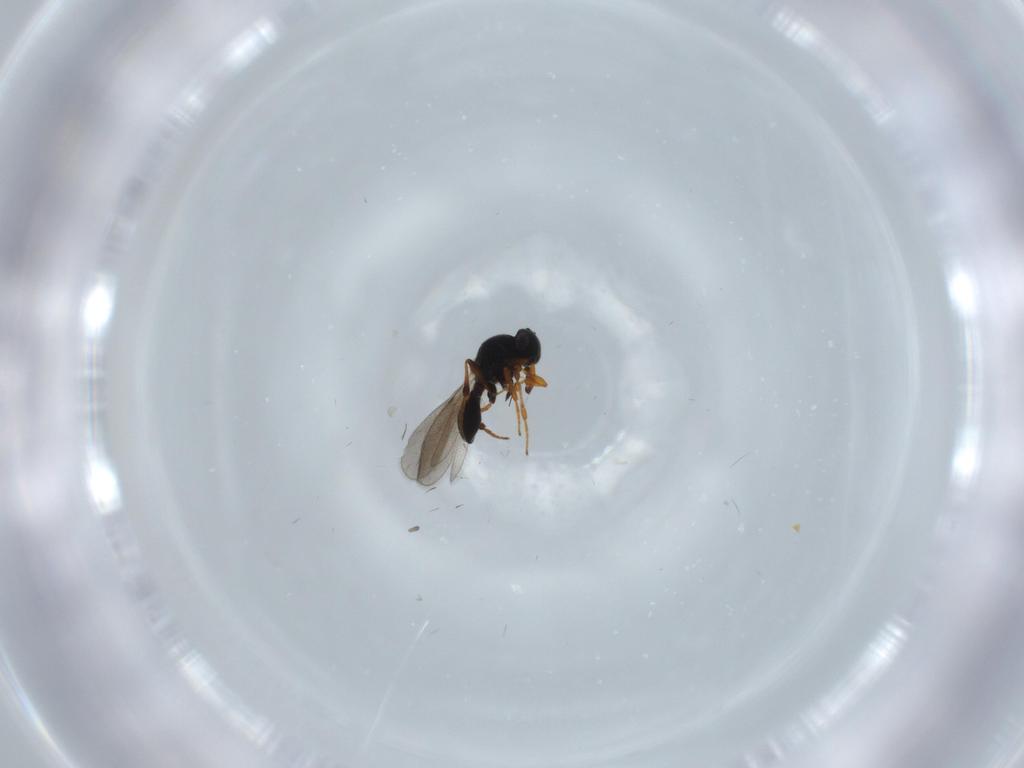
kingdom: Animalia
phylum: Arthropoda
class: Insecta
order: Hymenoptera
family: Platygastridae
